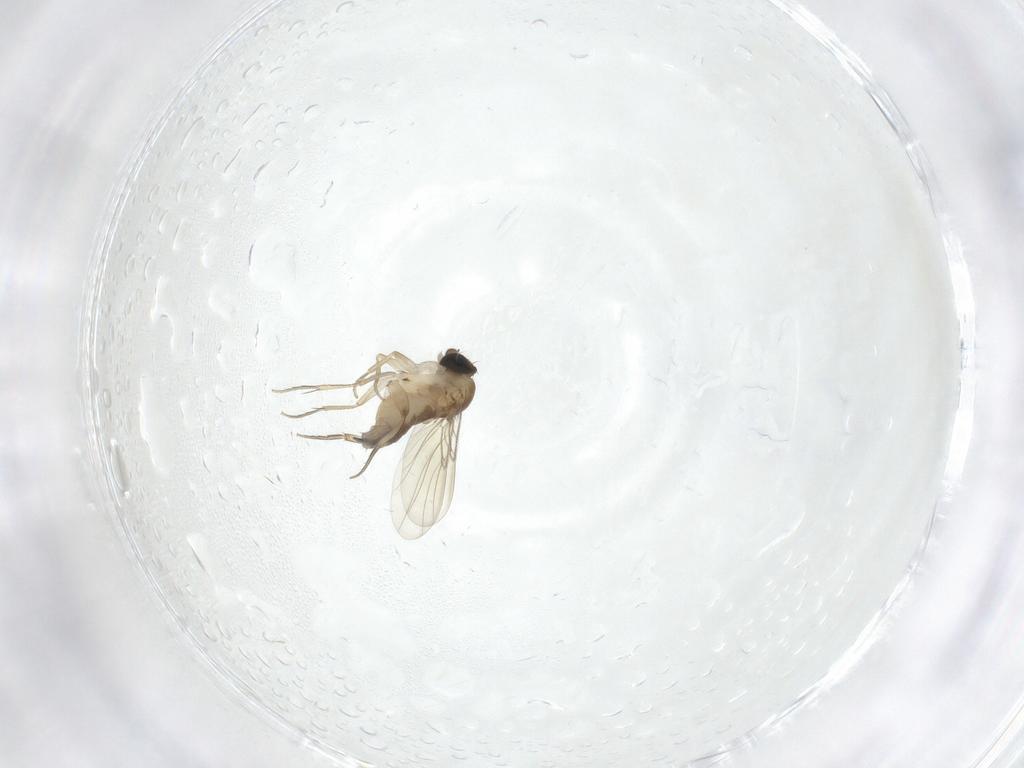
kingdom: Animalia
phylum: Arthropoda
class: Insecta
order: Diptera
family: Phoridae
